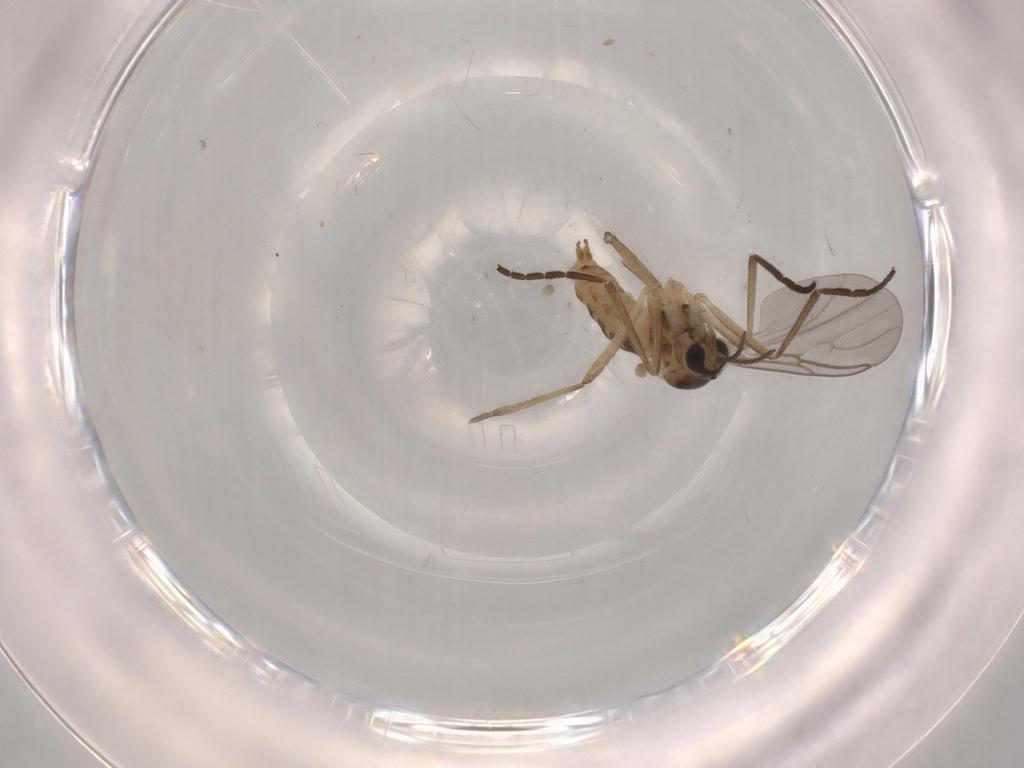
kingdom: Animalia
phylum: Arthropoda
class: Insecta
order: Diptera
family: Cecidomyiidae
